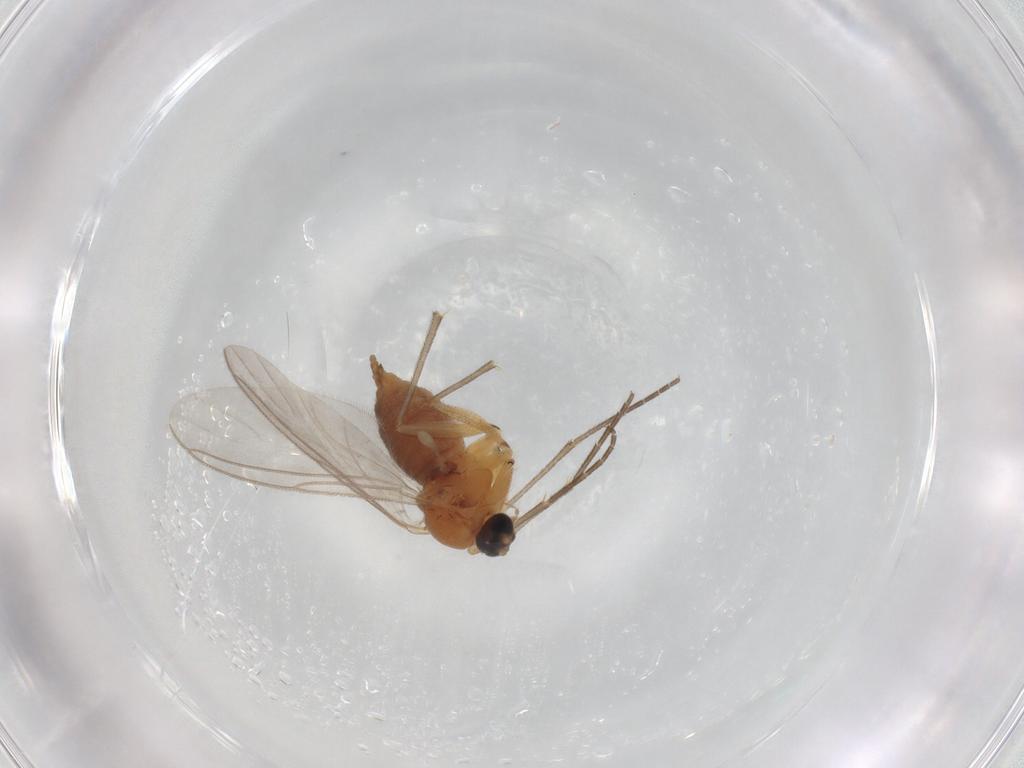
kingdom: Animalia
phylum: Arthropoda
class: Insecta
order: Diptera
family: Sciaridae
